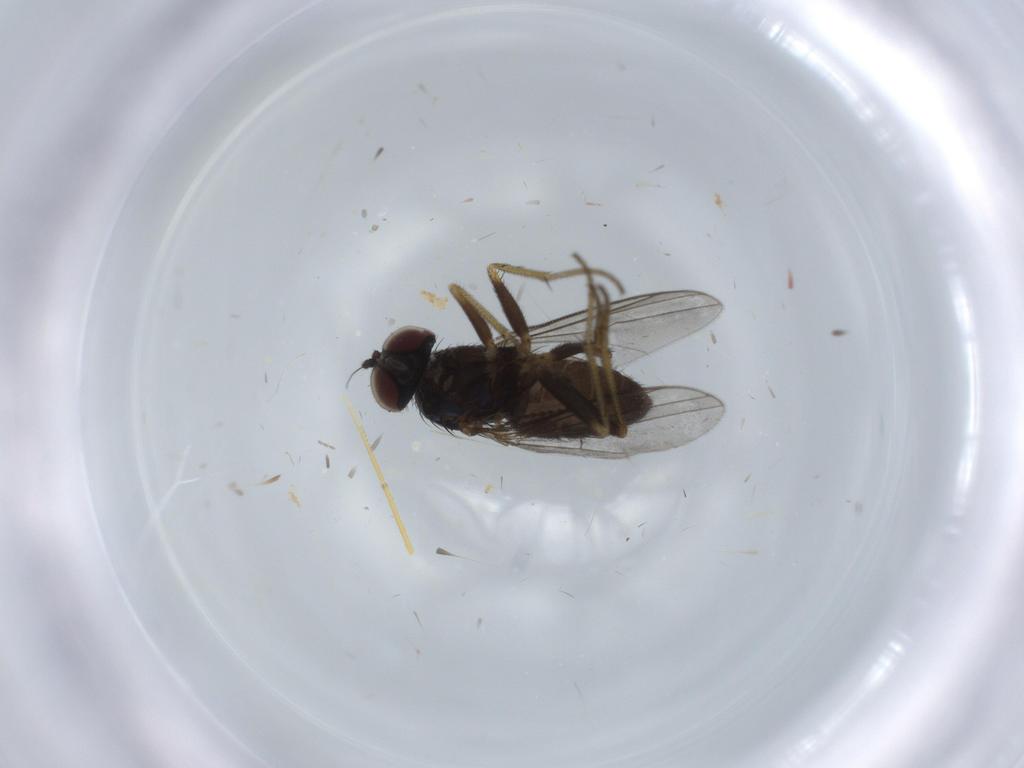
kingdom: Animalia
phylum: Arthropoda
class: Insecta
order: Diptera
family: Dolichopodidae
